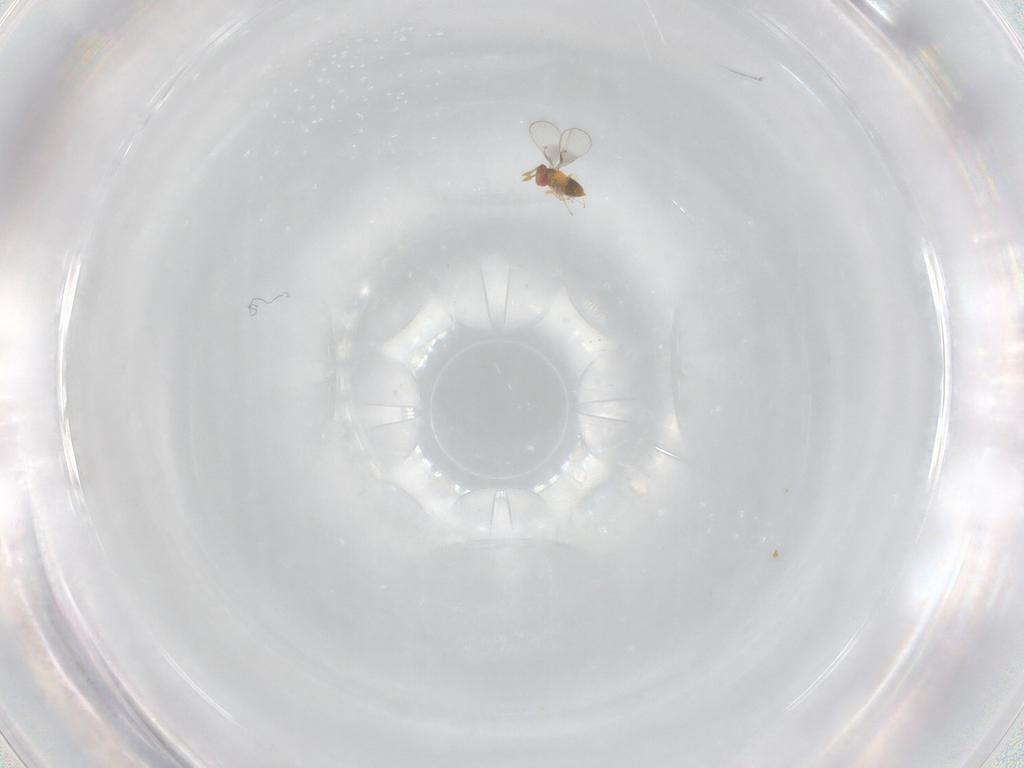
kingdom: Animalia
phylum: Arthropoda
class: Insecta
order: Hymenoptera
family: Trichogrammatidae
